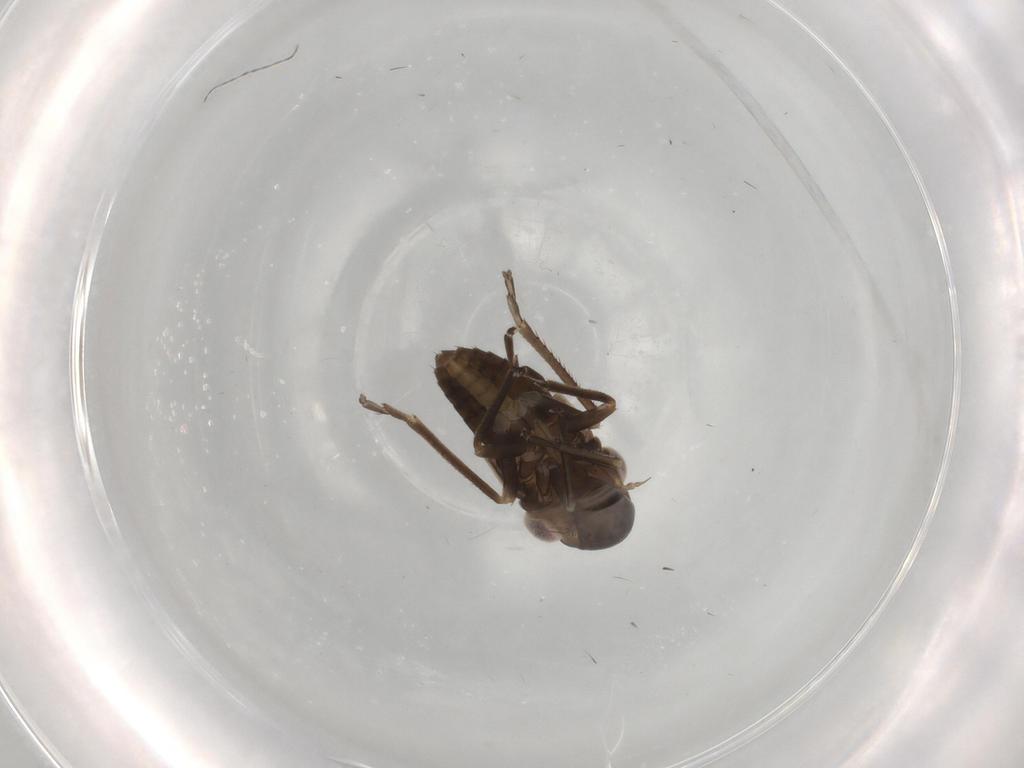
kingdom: Animalia
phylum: Arthropoda
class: Insecta
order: Hemiptera
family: Cicadellidae
